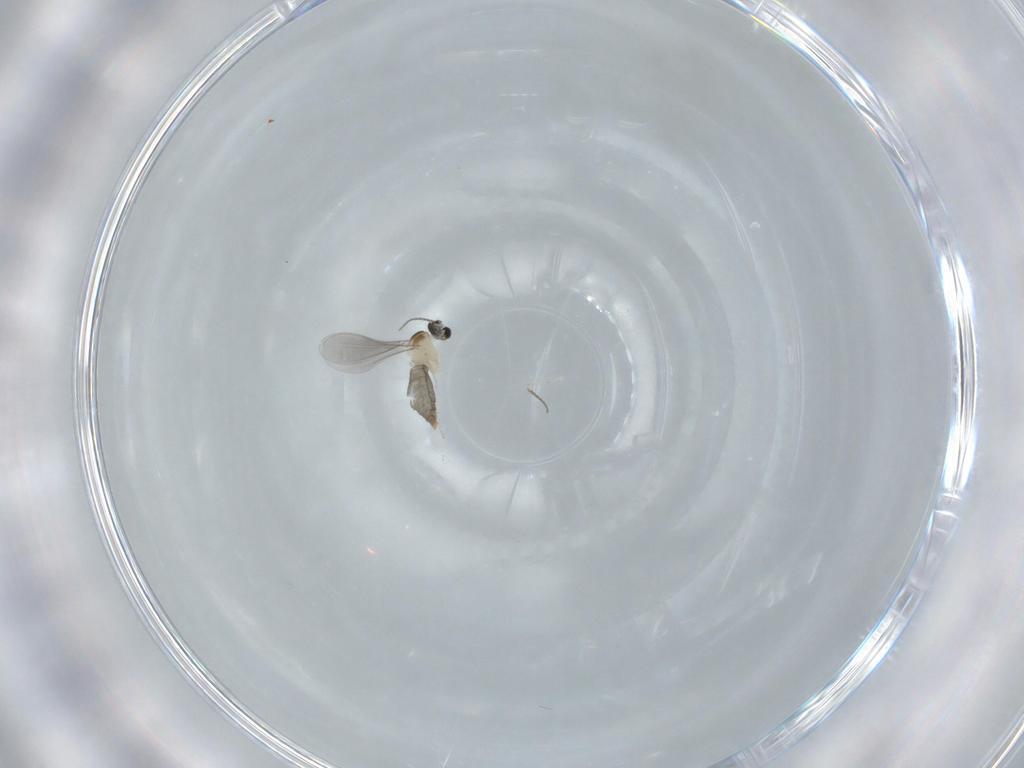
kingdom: Animalia
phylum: Arthropoda
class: Insecta
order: Diptera
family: Cecidomyiidae
